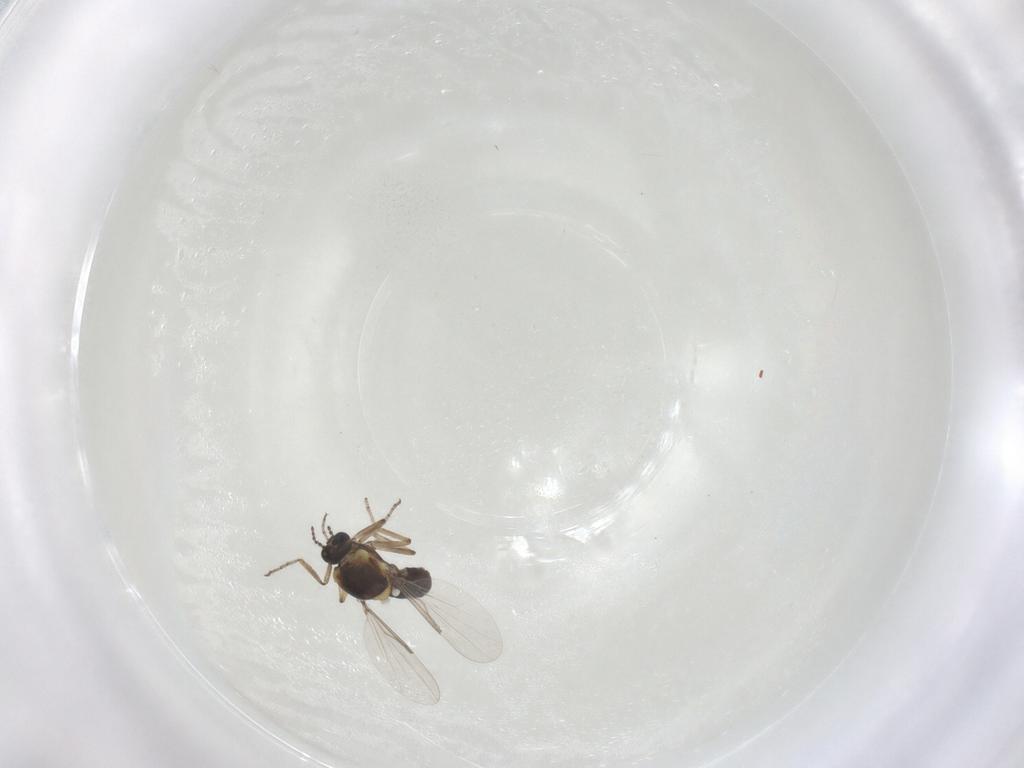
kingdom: Animalia
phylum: Arthropoda
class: Insecta
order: Diptera
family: Ceratopogonidae
